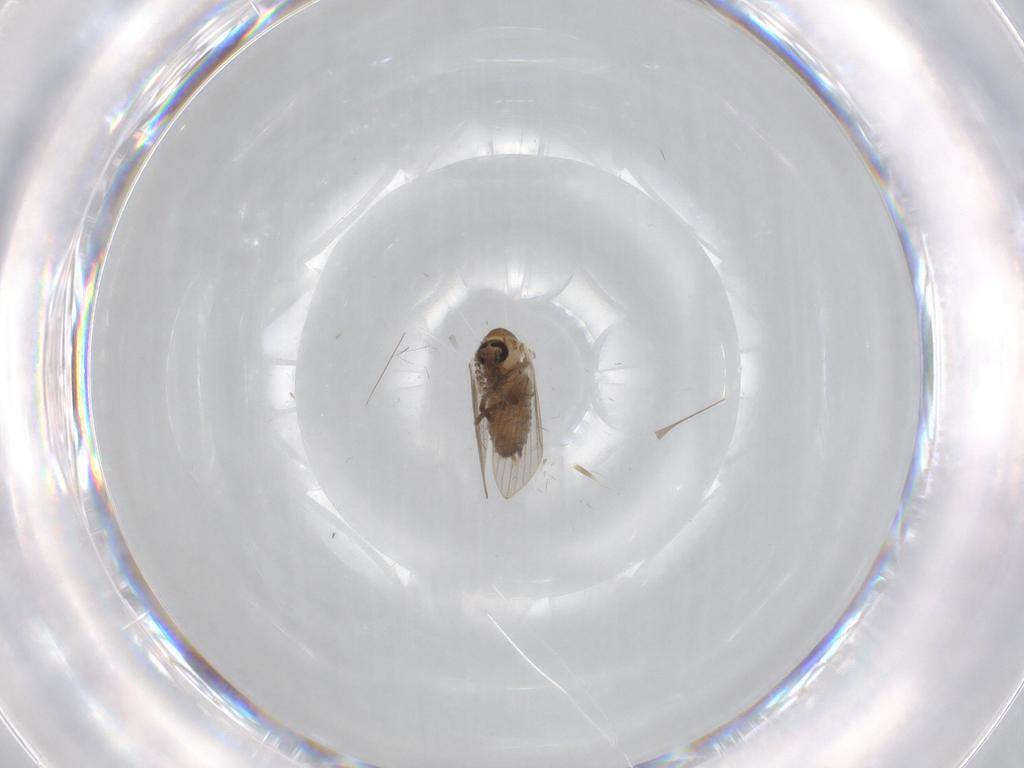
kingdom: Animalia
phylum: Arthropoda
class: Insecta
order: Diptera
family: Psychodidae
